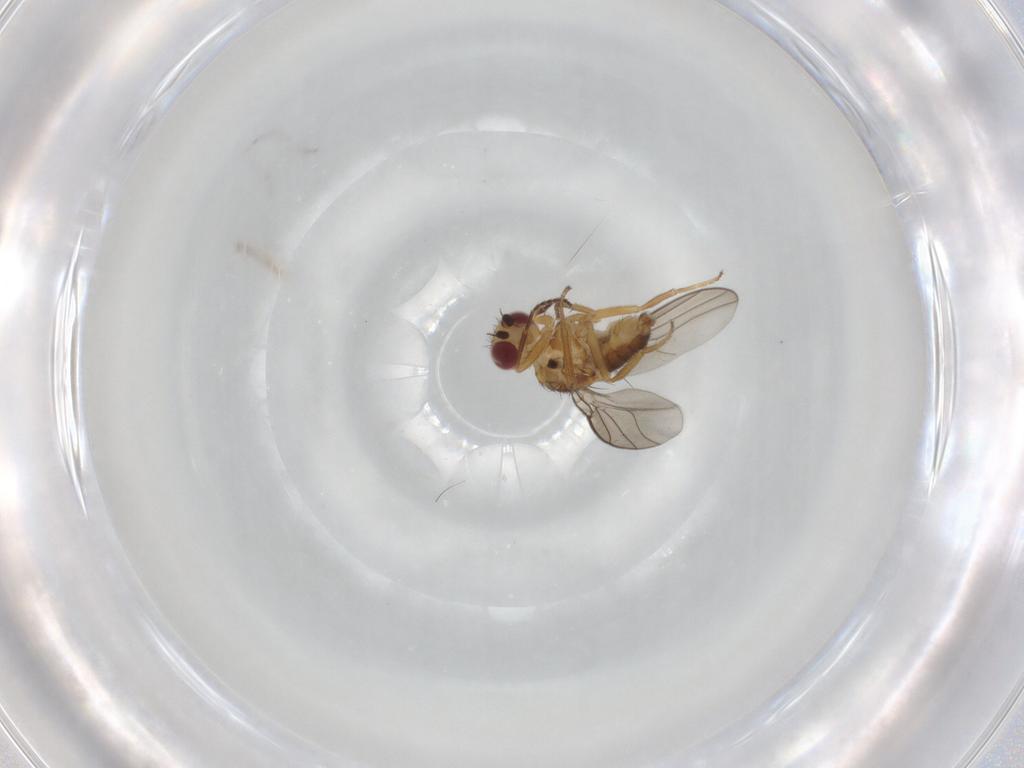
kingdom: Animalia
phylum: Arthropoda
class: Insecta
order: Diptera
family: Chloropidae
